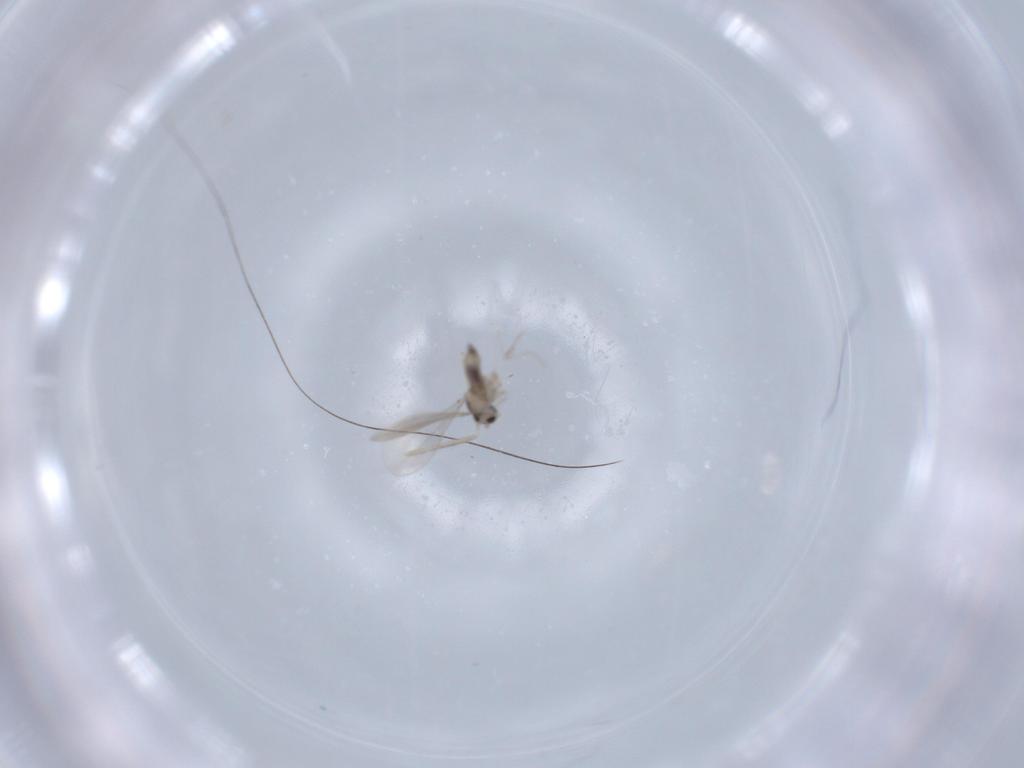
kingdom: Animalia
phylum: Arthropoda
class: Insecta
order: Diptera
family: Cecidomyiidae
